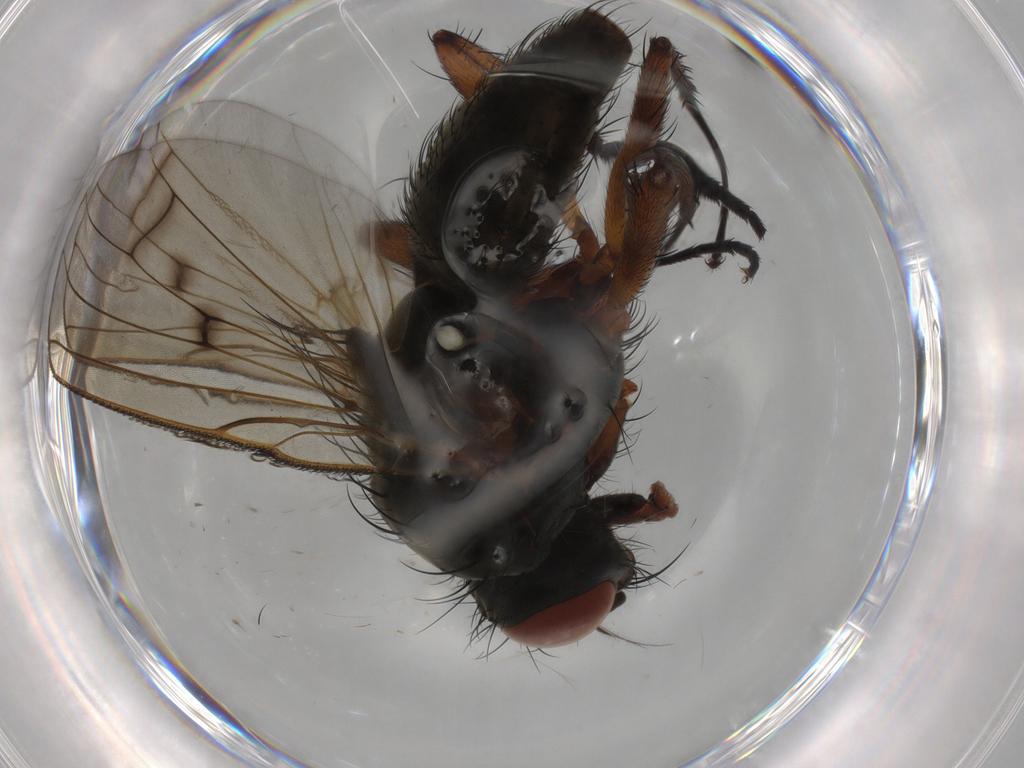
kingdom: Animalia
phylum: Arthropoda
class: Insecta
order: Diptera
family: Anthomyiidae
